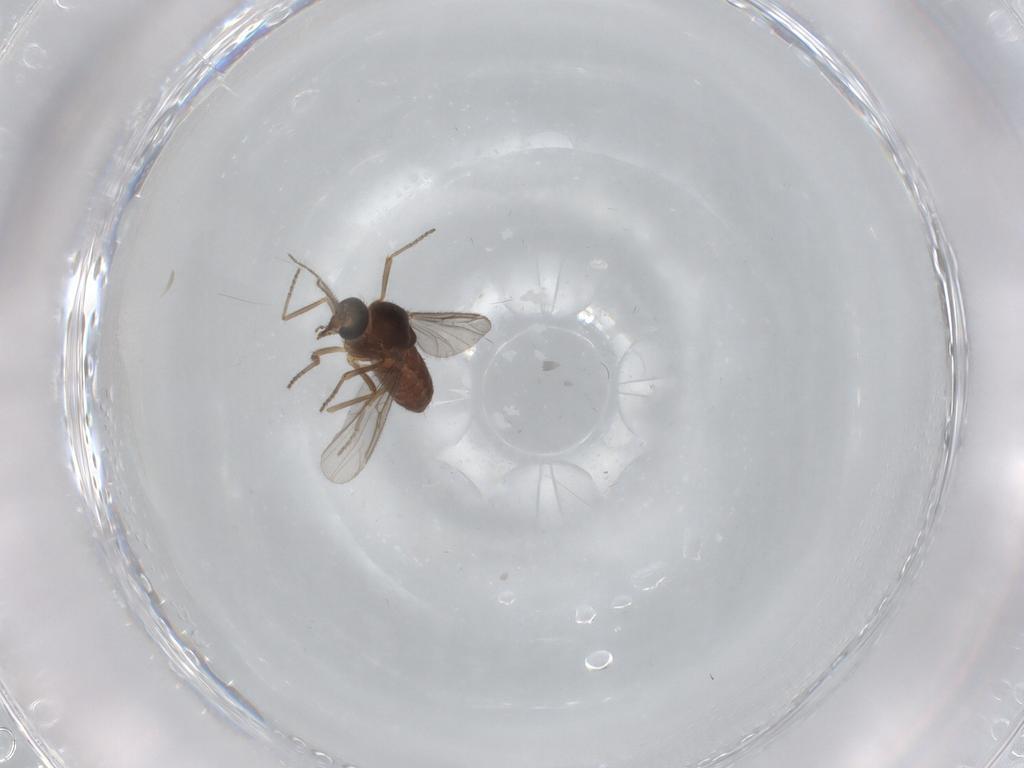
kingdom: Animalia
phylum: Arthropoda
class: Insecta
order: Diptera
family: Ceratopogonidae
